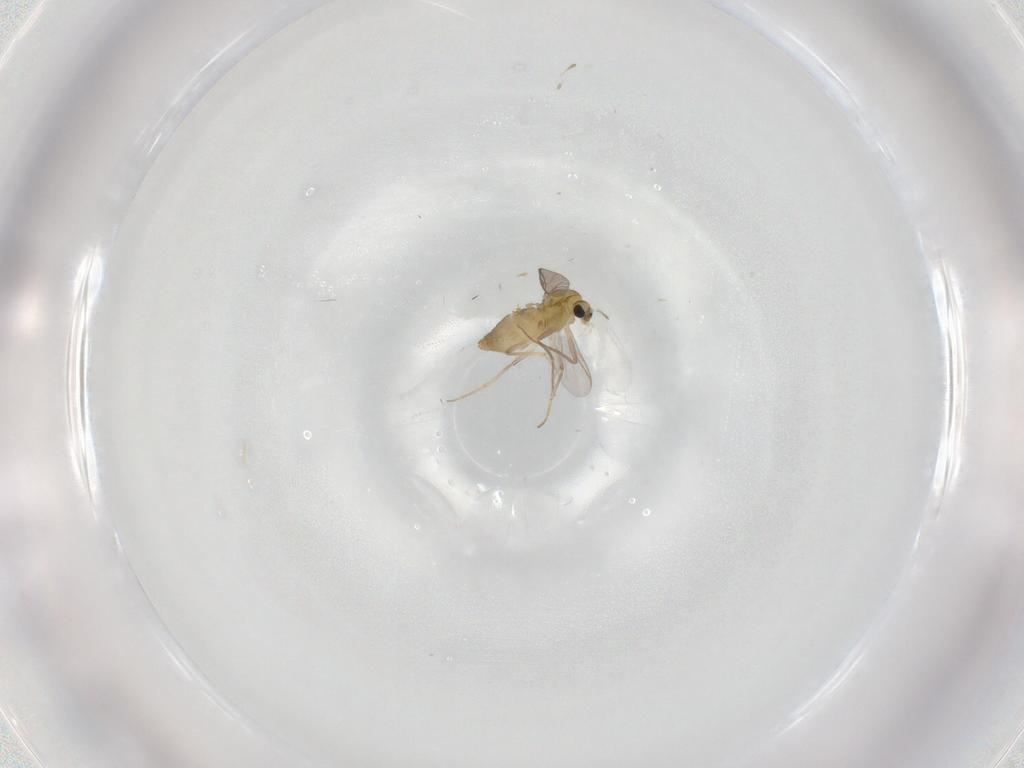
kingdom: Animalia
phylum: Arthropoda
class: Insecta
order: Diptera
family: Chironomidae
